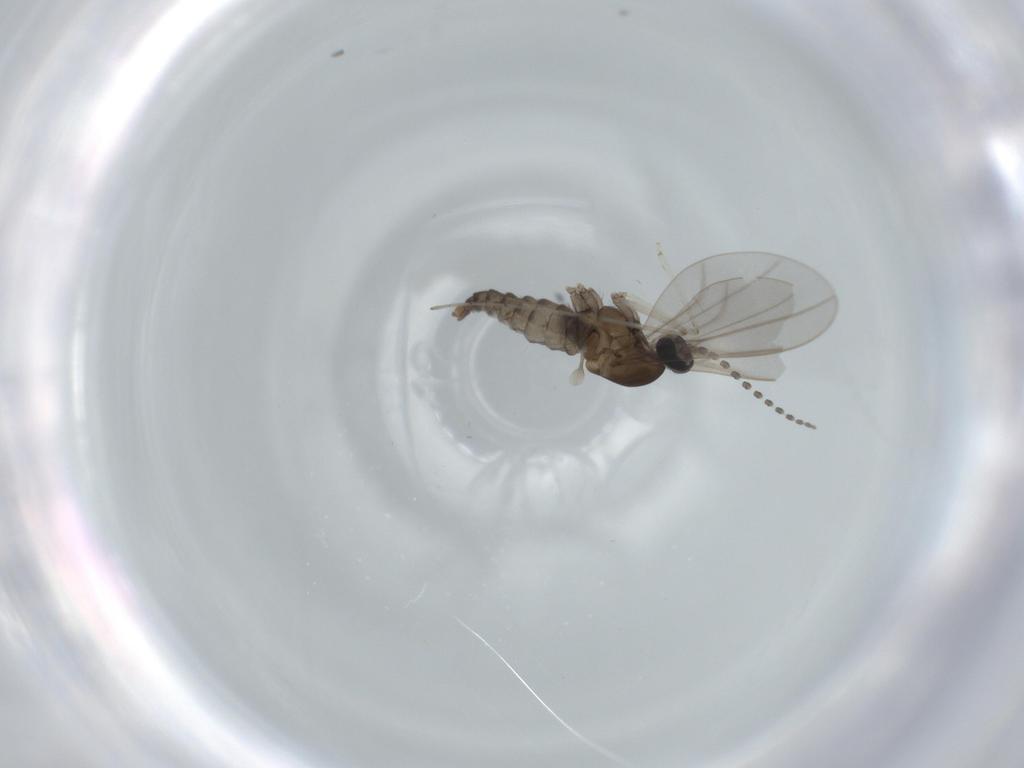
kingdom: Animalia
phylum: Arthropoda
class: Insecta
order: Diptera
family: Cecidomyiidae
